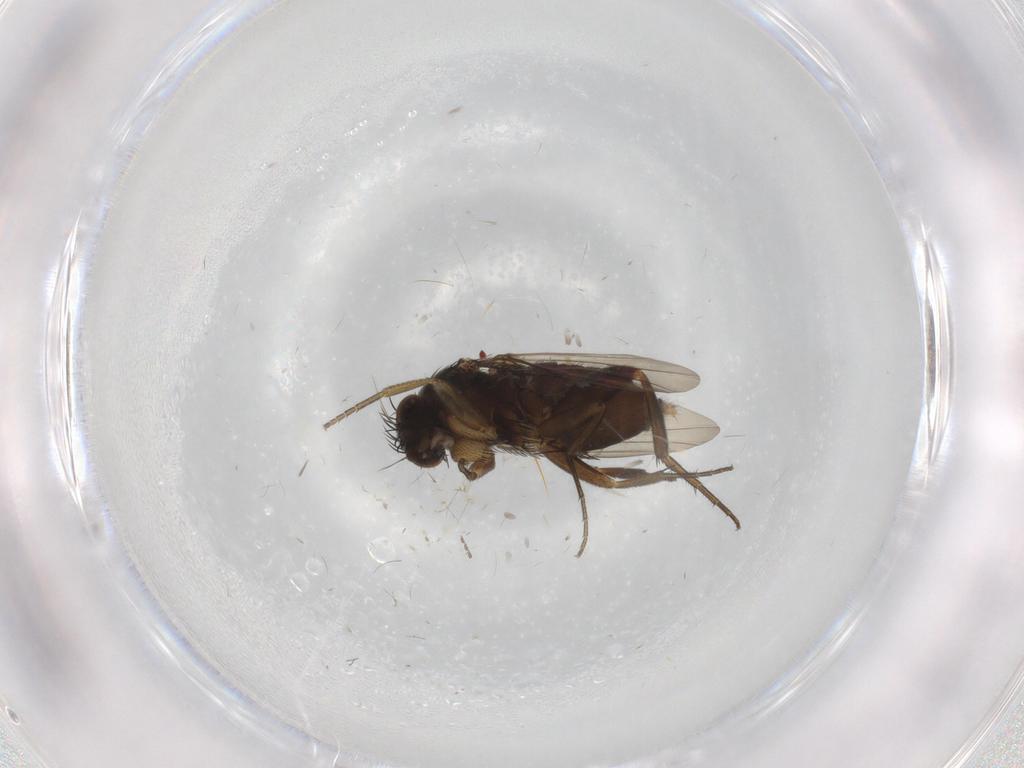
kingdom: Animalia
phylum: Arthropoda
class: Insecta
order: Diptera
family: Phoridae
